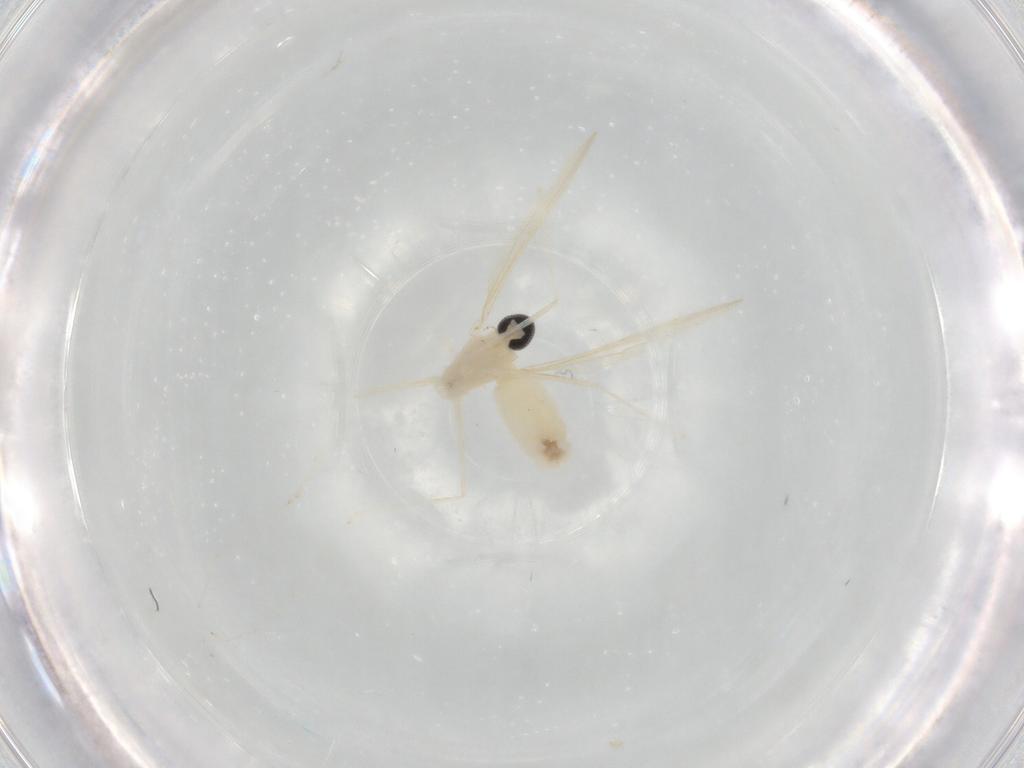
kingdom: Animalia
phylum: Arthropoda
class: Insecta
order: Diptera
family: Cecidomyiidae
